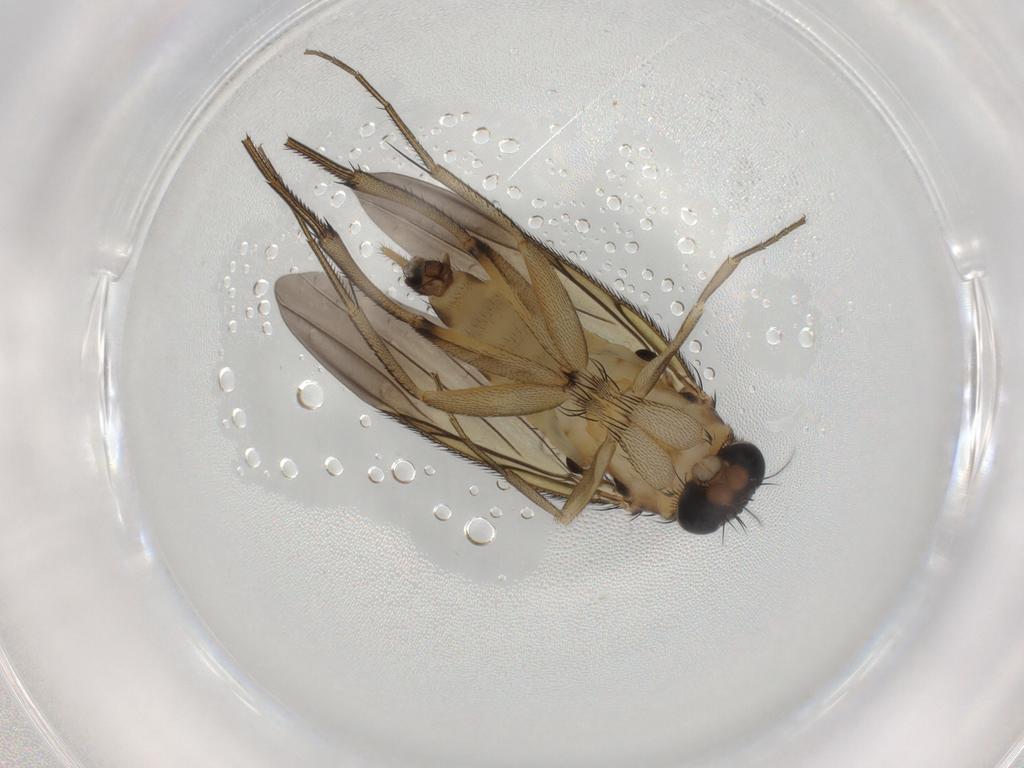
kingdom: Animalia
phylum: Arthropoda
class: Insecta
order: Diptera
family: Phoridae
